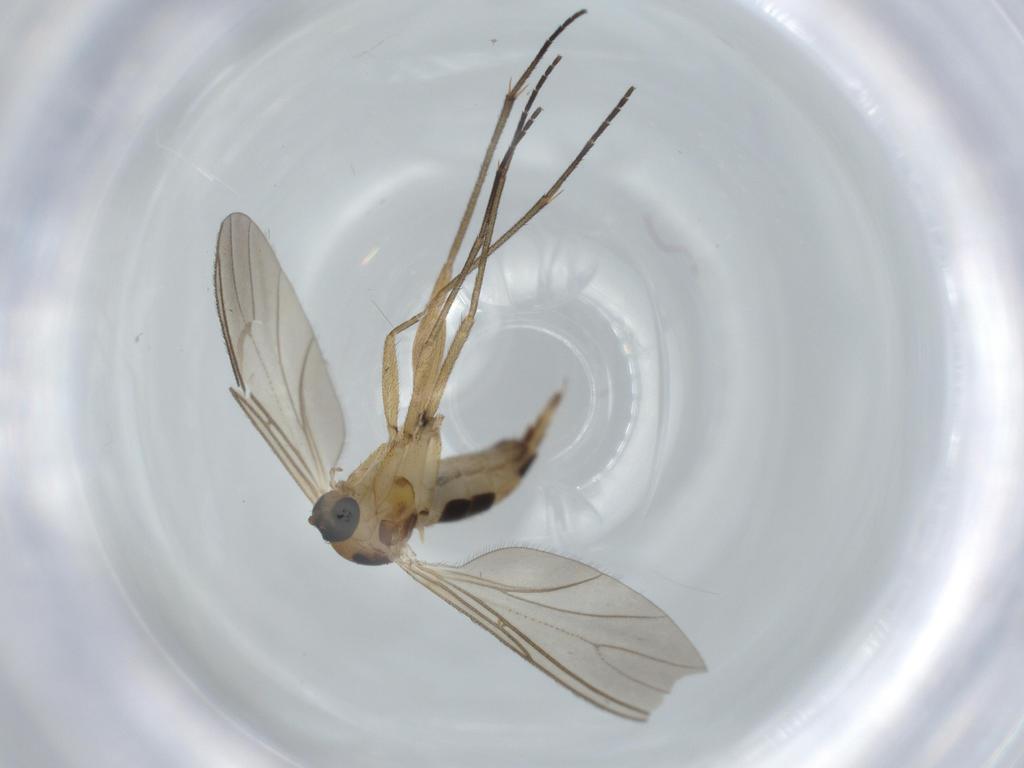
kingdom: Animalia
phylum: Arthropoda
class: Insecta
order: Diptera
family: Sciaridae
